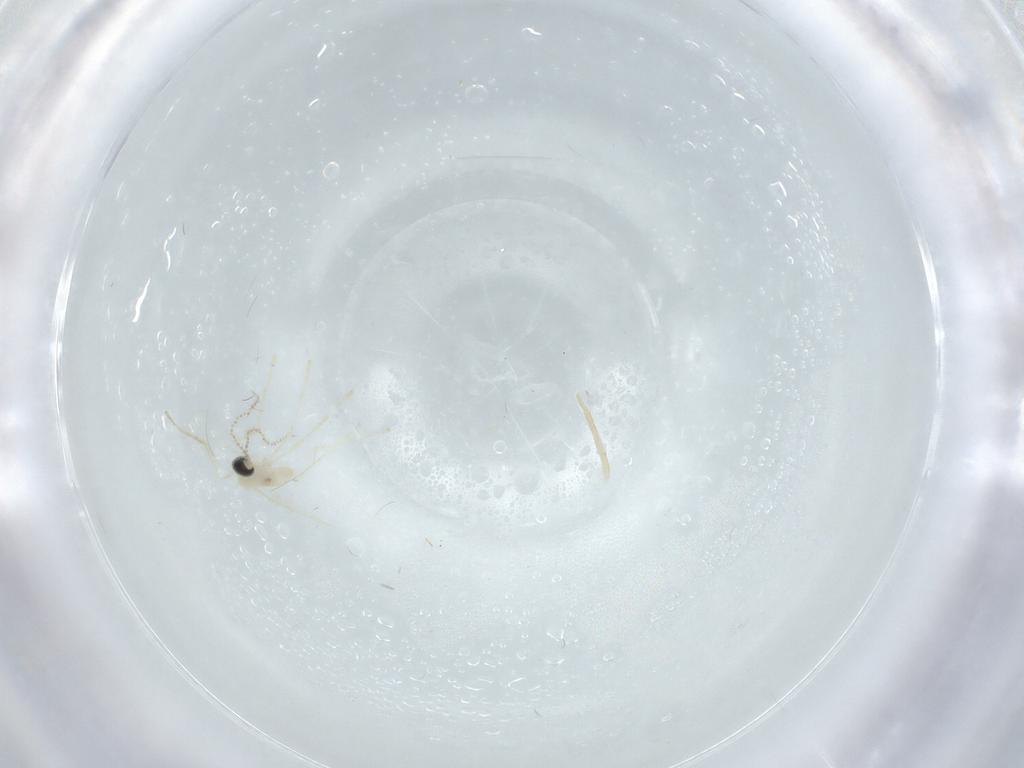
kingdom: Animalia
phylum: Arthropoda
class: Insecta
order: Diptera
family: Cecidomyiidae
